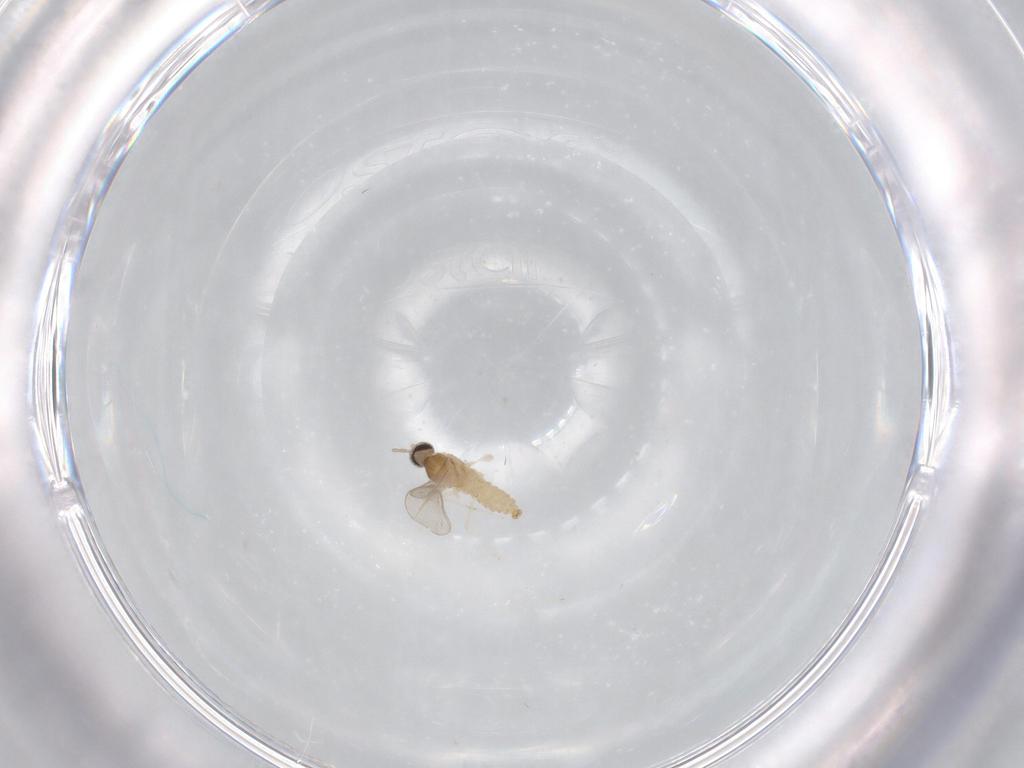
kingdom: Animalia
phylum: Arthropoda
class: Insecta
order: Diptera
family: Cecidomyiidae
